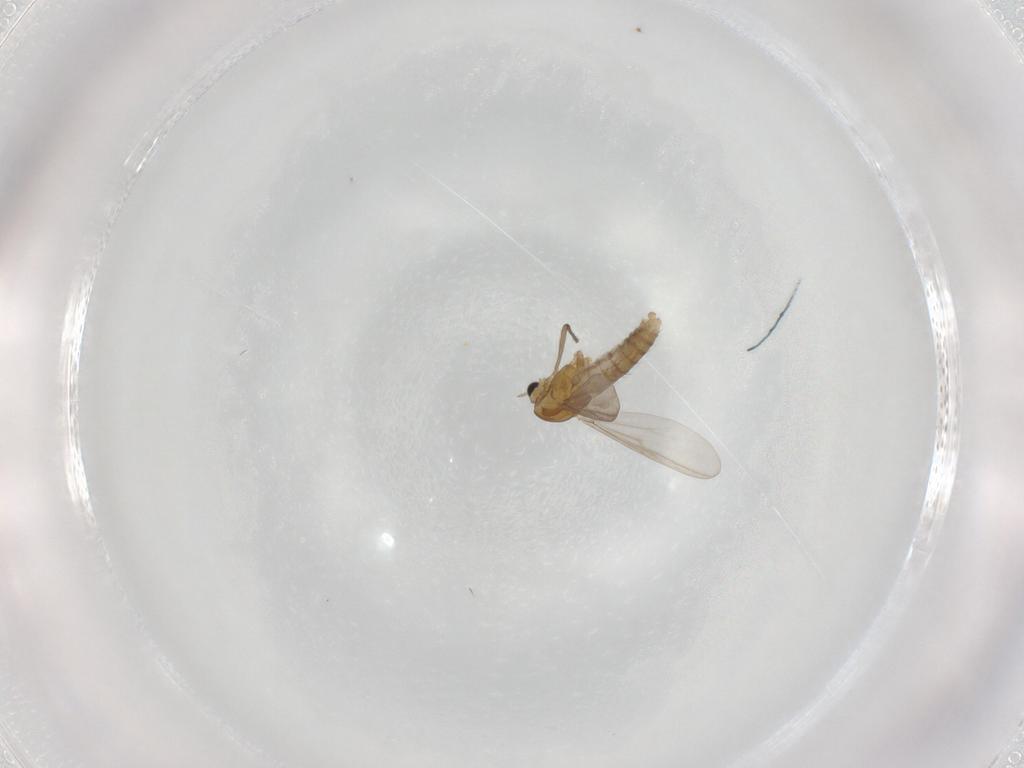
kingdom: Animalia
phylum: Arthropoda
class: Insecta
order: Diptera
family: Chironomidae
